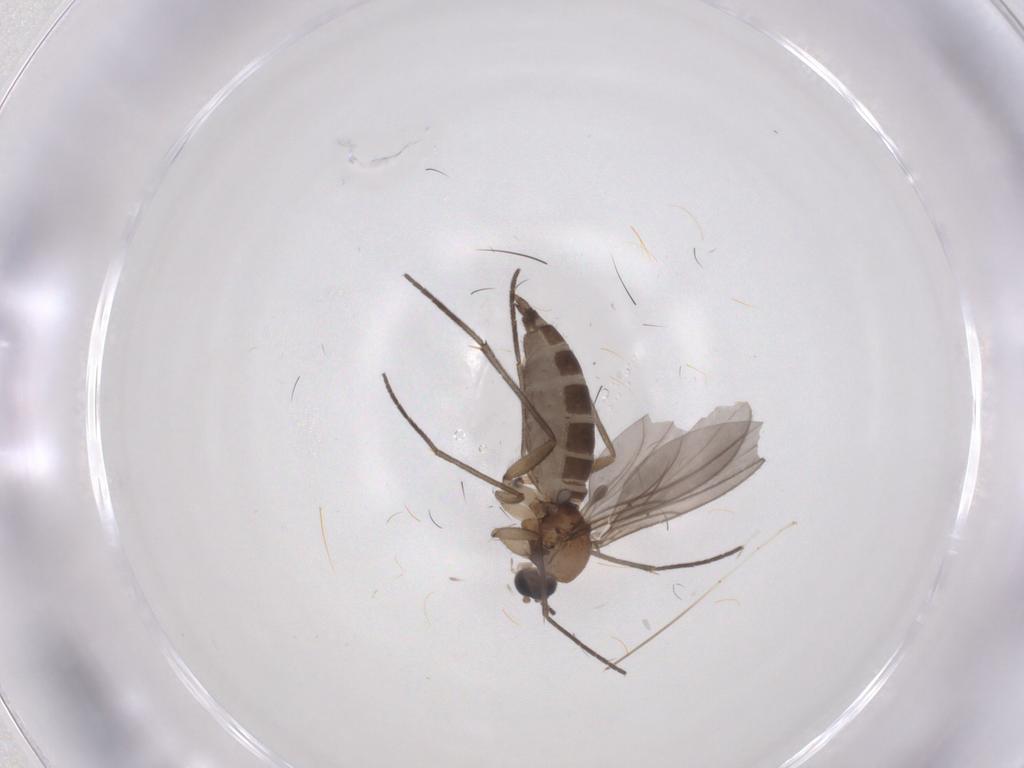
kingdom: Animalia
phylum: Arthropoda
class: Insecta
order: Diptera
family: Sciaridae
